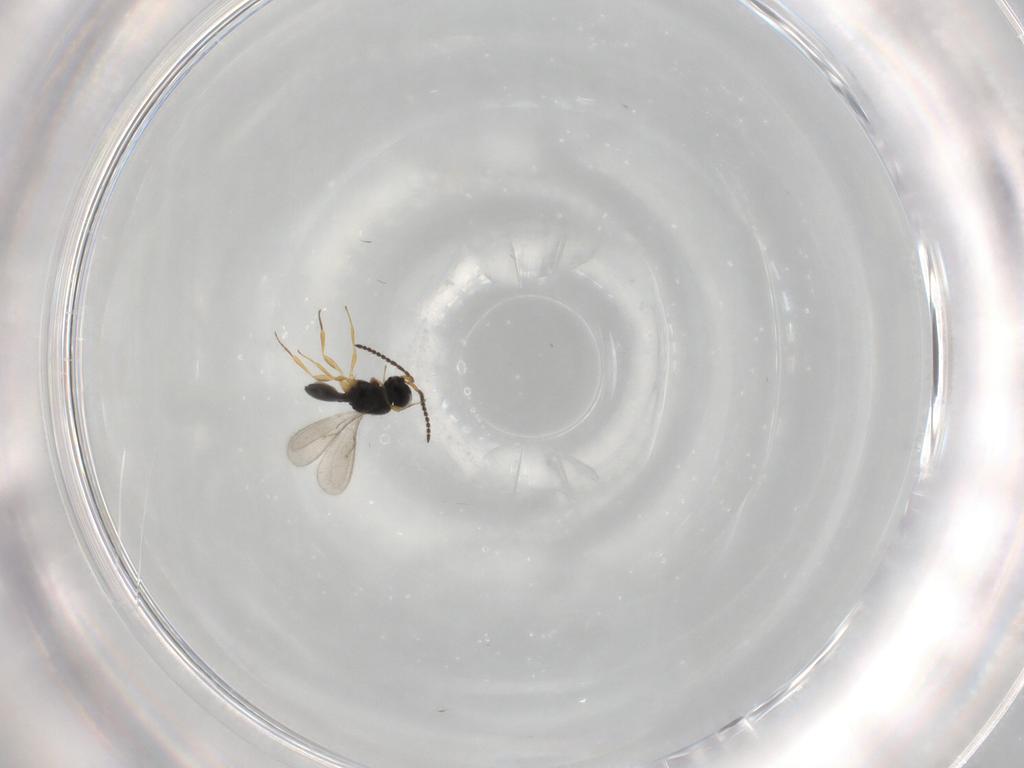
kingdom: Animalia
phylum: Arthropoda
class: Insecta
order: Hymenoptera
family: Scelionidae
